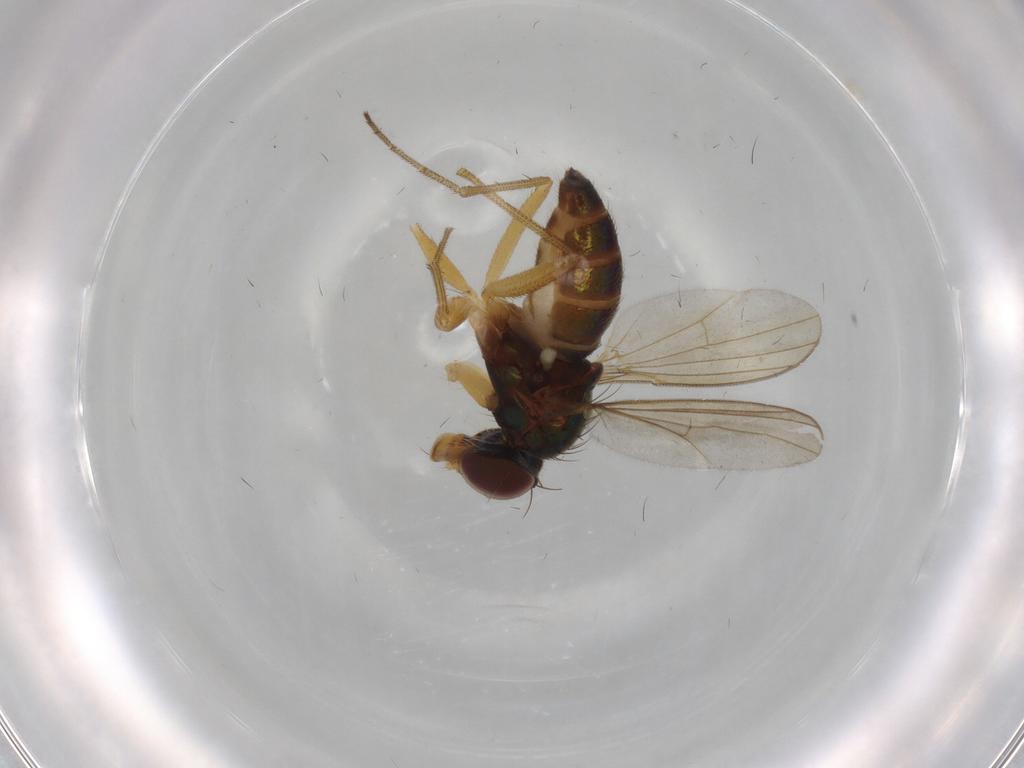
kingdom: Animalia
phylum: Arthropoda
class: Insecta
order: Diptera
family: Dolichopodidae
